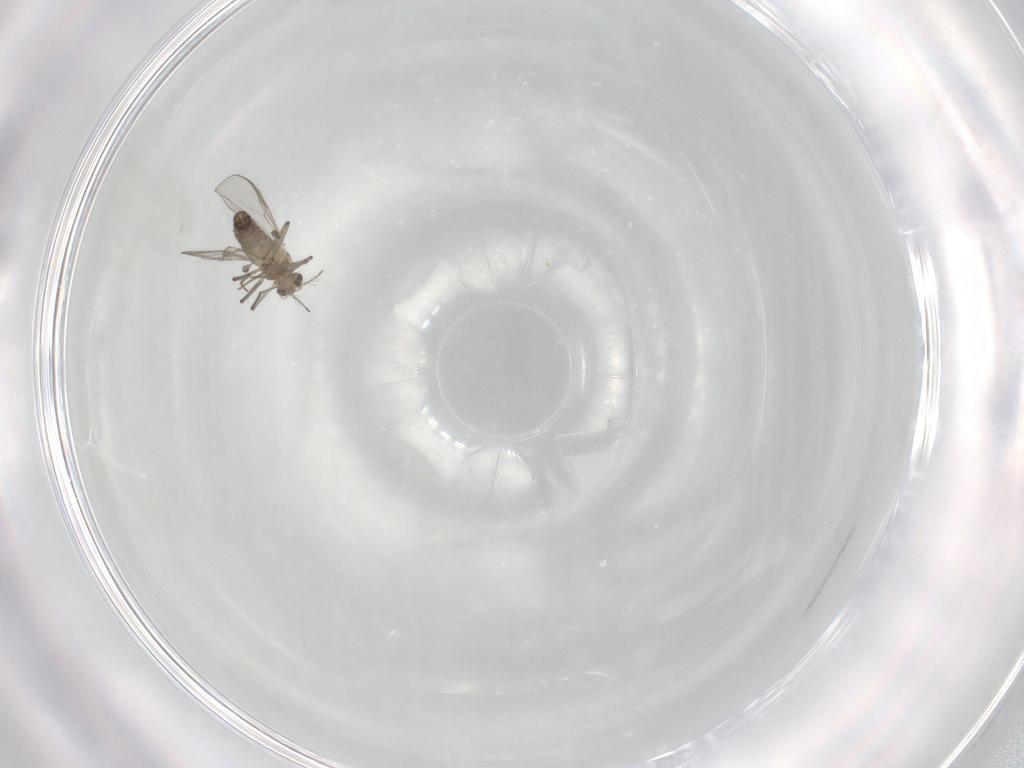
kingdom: Animalia
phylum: Arthropoda
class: Insecta
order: Diptera
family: Chironomidae
